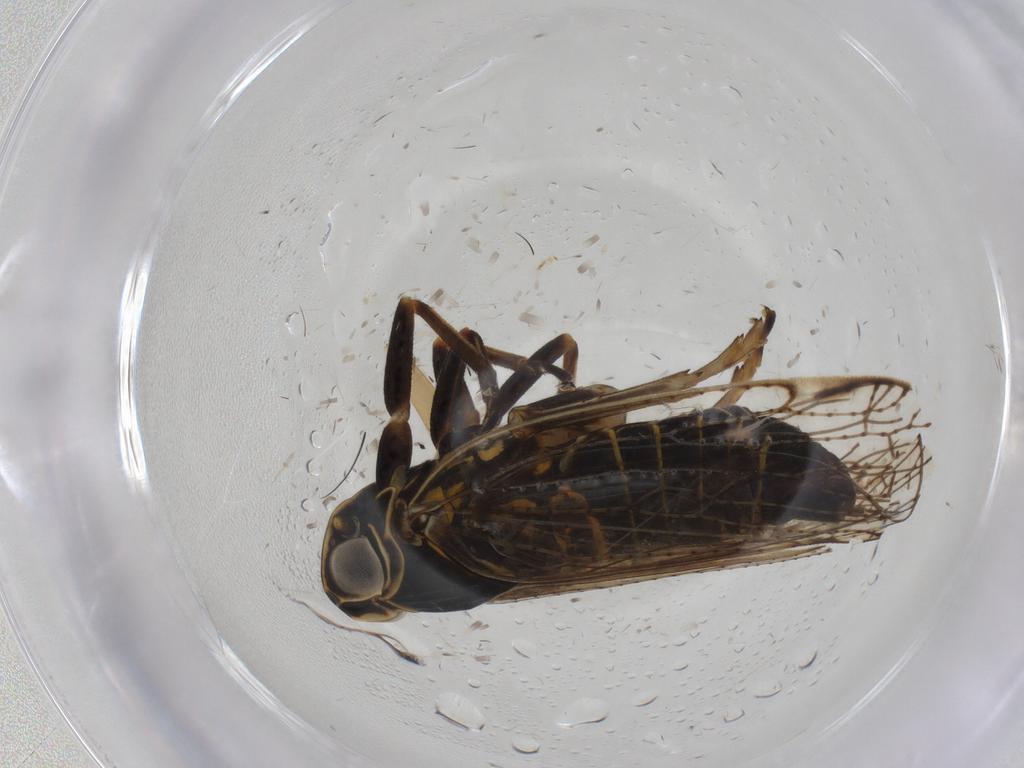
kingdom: Animalia
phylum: Arthropoda
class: Insecta
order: Hemiptera
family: Cixiidae
